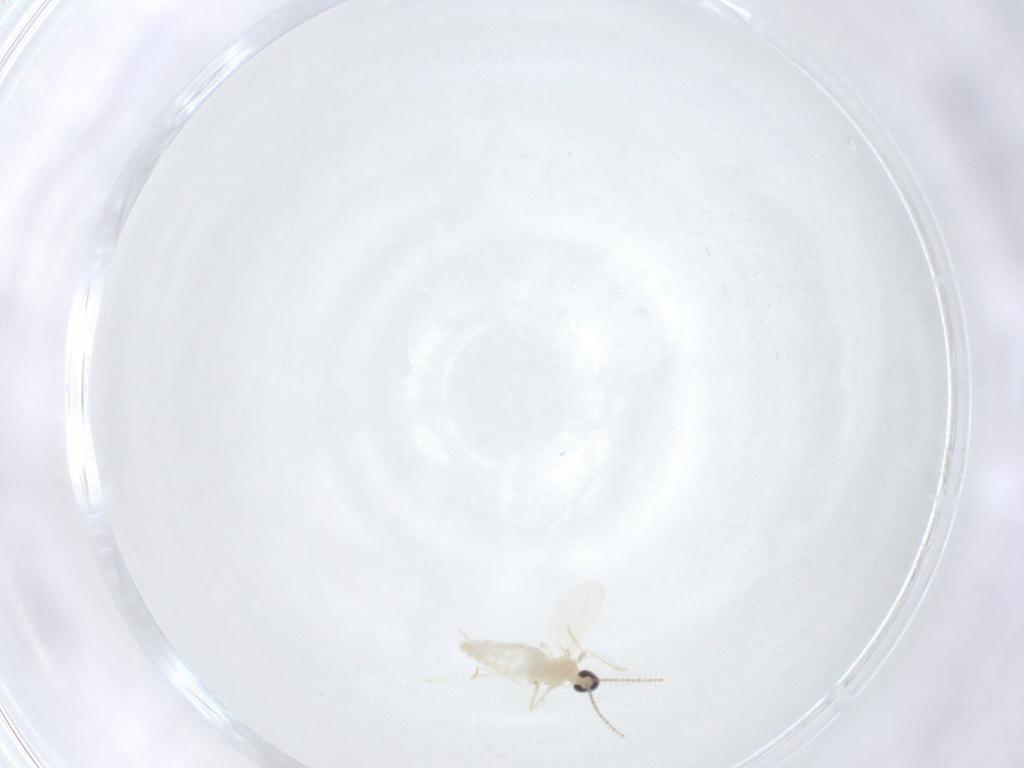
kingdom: Animalia
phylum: Arthropoda
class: Insecta
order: Diptera
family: Cecidomyiidae
